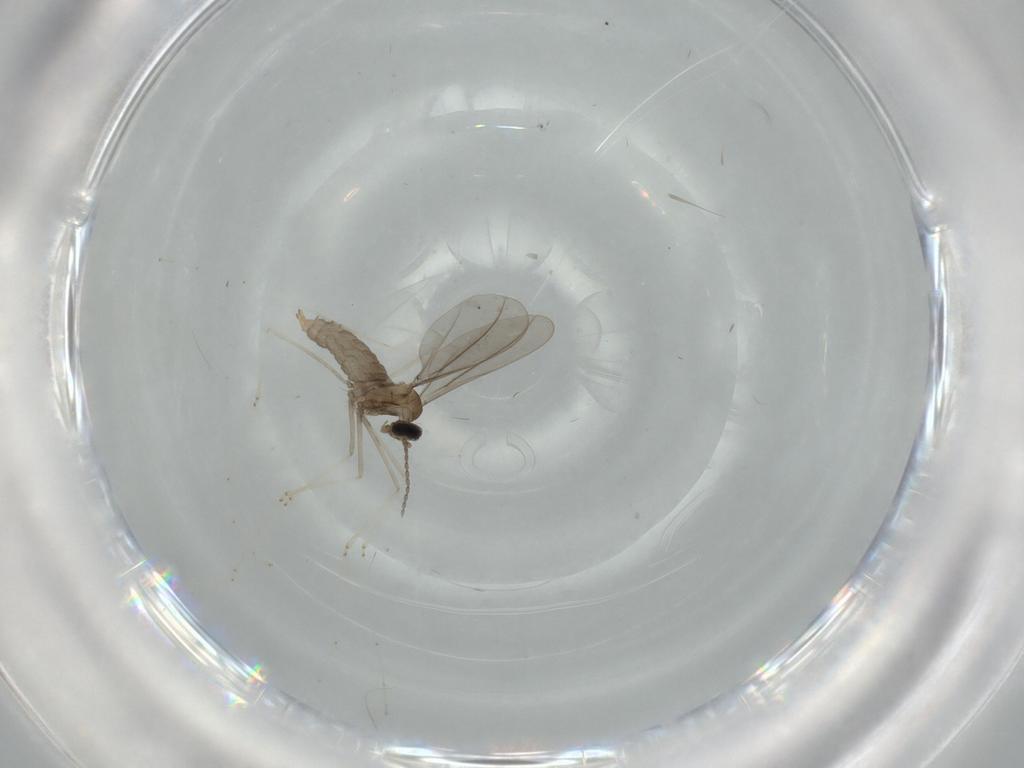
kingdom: Animalia
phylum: Arthropoda
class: Insecta
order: Diptera
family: Cecidomyiidae
